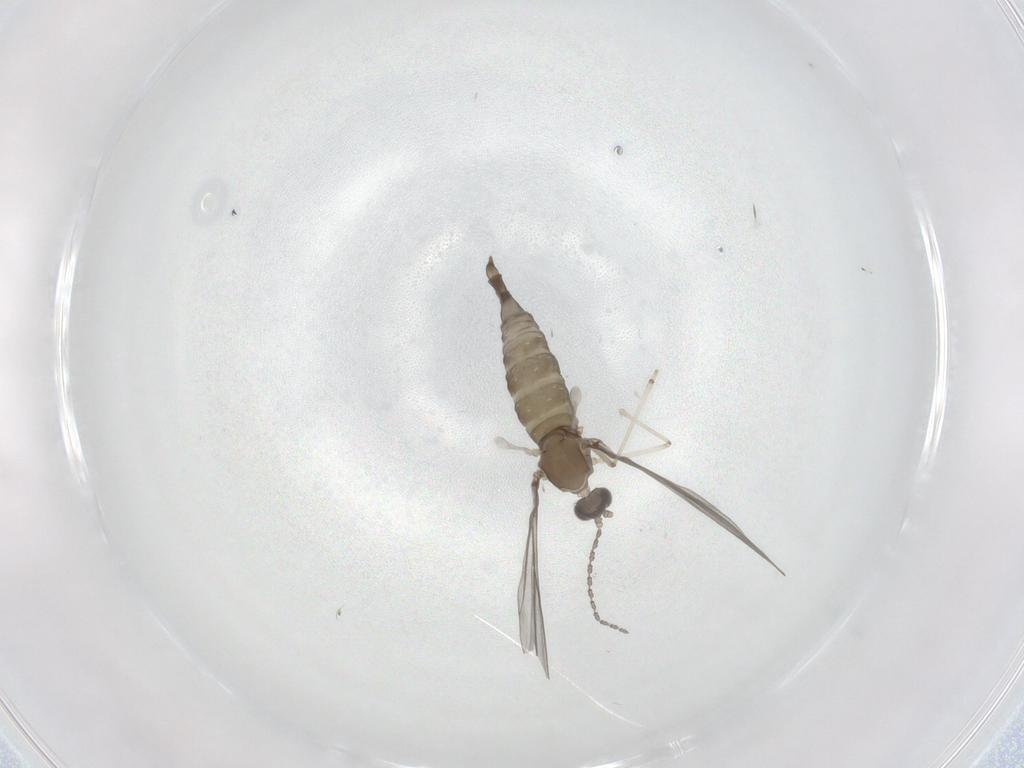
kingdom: Animalia
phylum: Arthropoda
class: Insecta
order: Diptera
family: Cecidomyiidae
